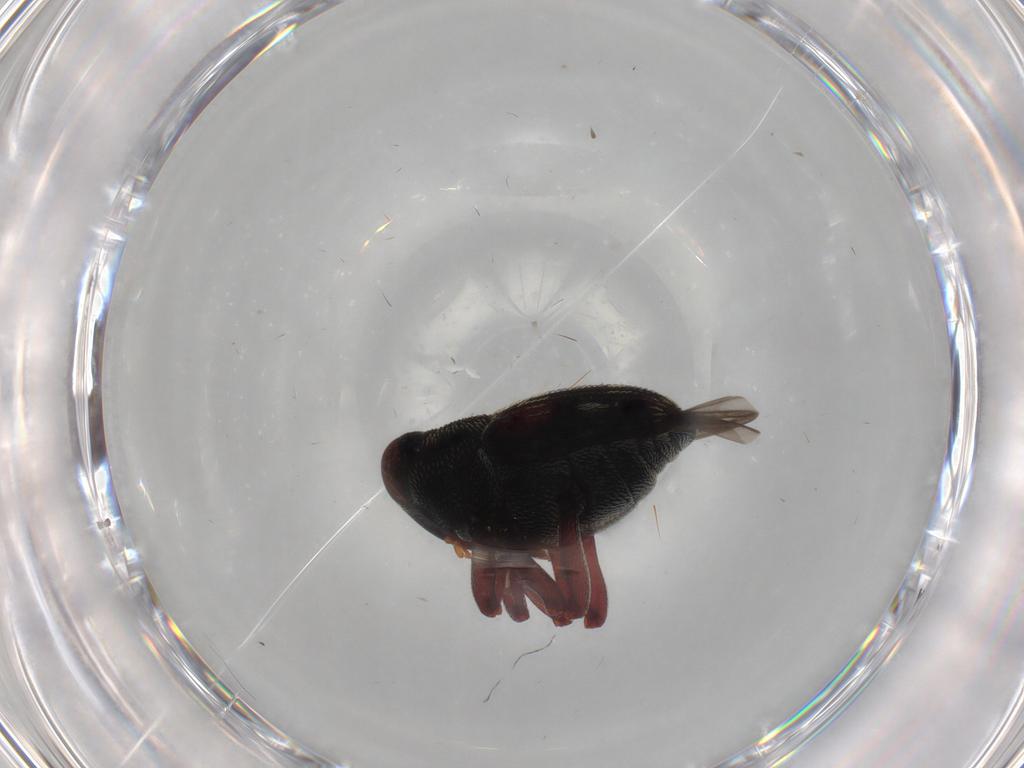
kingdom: Animalia
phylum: Arthropoda
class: Insecta
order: Coleoptera
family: Curculionidae
